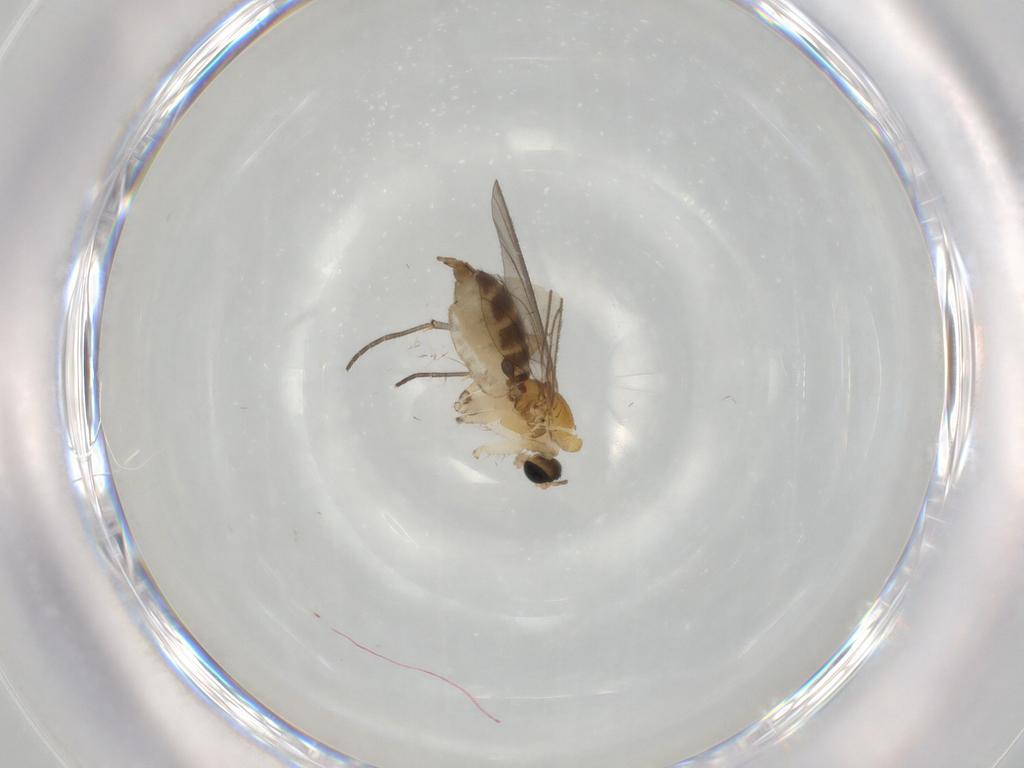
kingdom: Animalia
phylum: Arthropoda
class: Insecta
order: Diptera
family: Sciaridae
